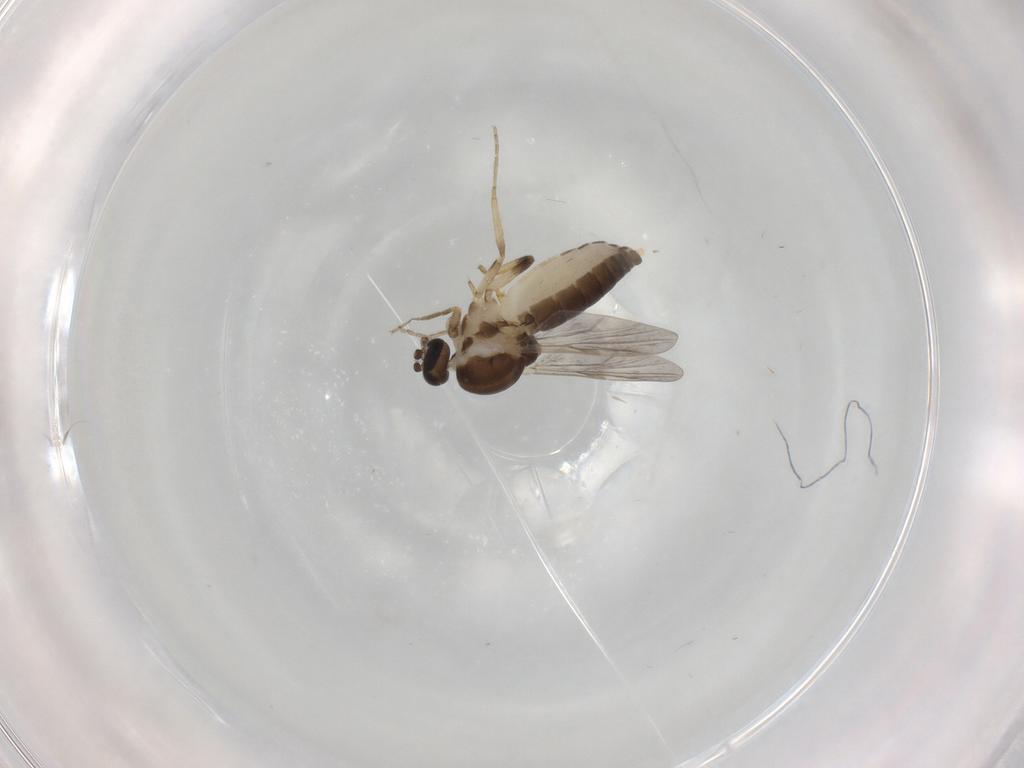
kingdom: Animalia
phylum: Arthropoda
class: Insecta
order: Diptera
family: Ceratopogonidae
